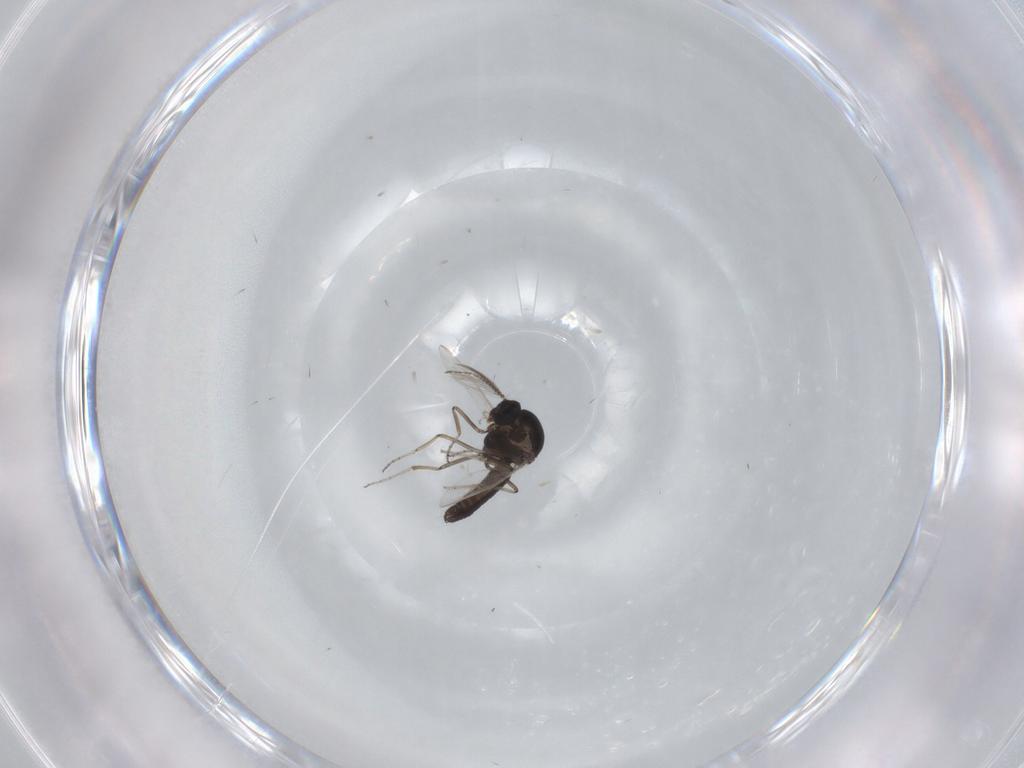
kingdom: Animalia
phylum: Arthropoda
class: Insecta
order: Diptera
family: Ceratopogonidae
